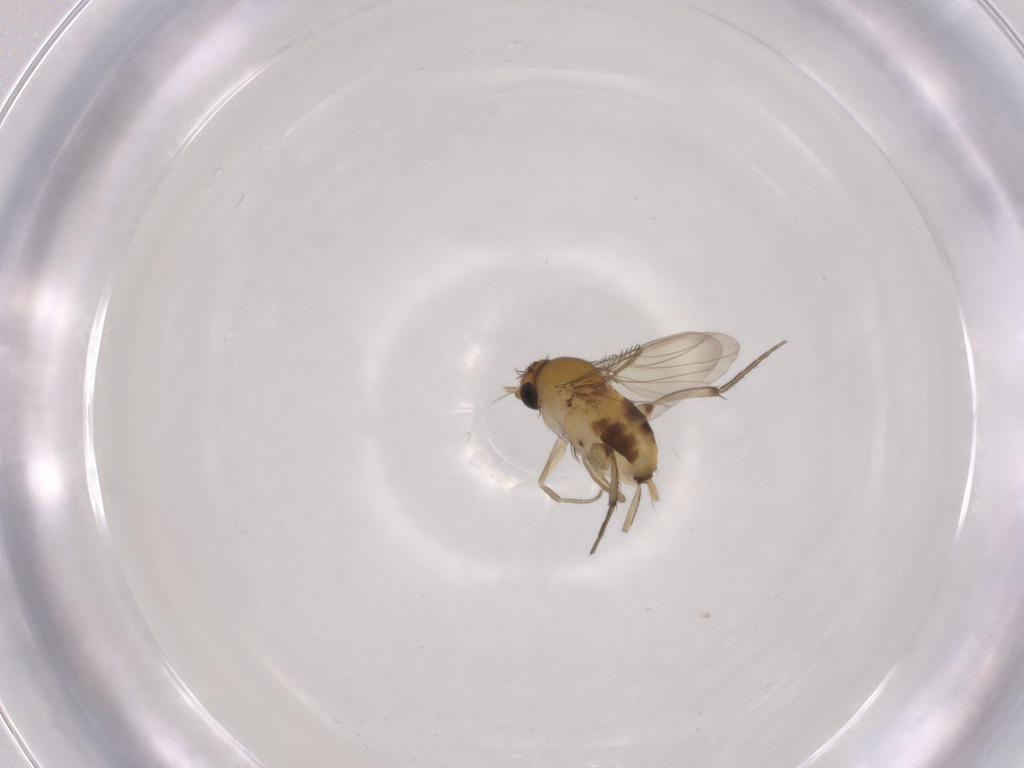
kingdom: Animalia
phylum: Arthropoda
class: Insecta
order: Diptera
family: Phoridae
